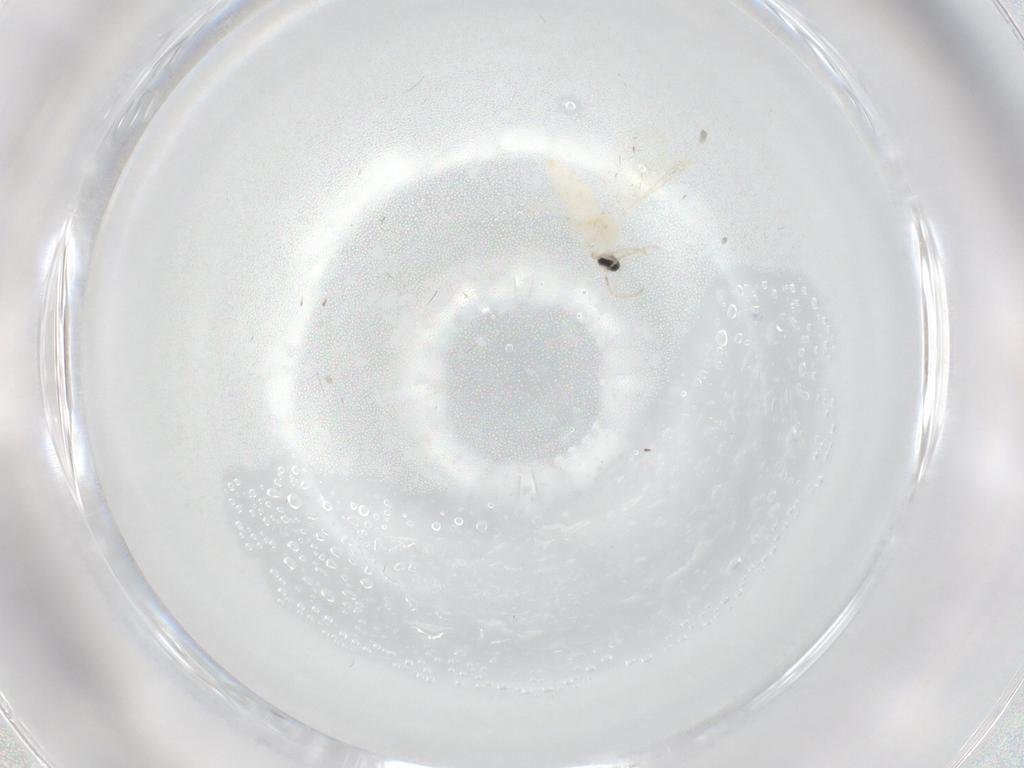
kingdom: Animalia
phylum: Arthropoda
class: Insecta
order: Diptera
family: Cecidomyiidae
